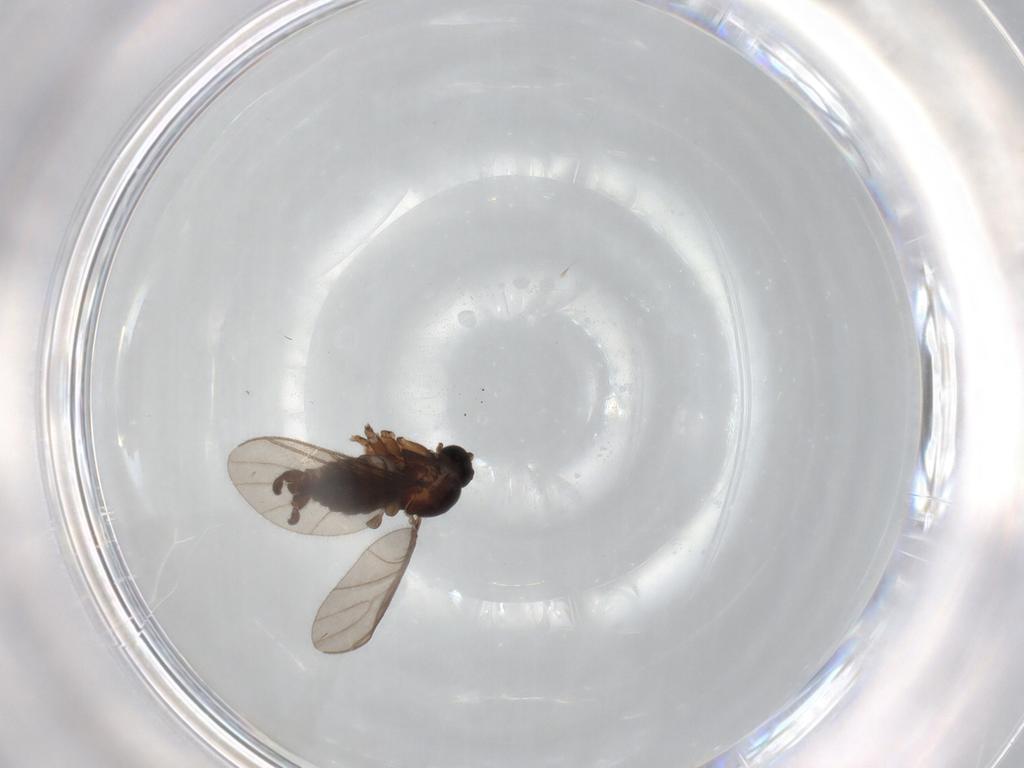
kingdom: Animalia
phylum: Arthropoda
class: Insecta
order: Diptera
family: Sciaridae
